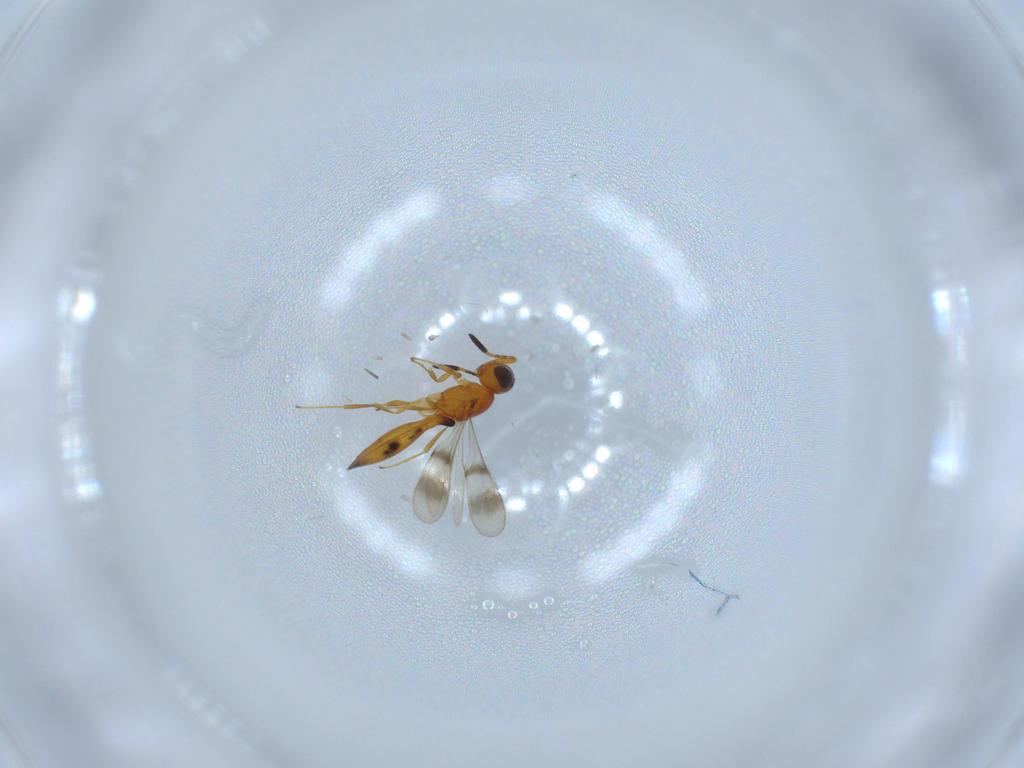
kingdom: Animalia
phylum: Arthropoda
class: Insecta
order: Hymenoptera
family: Scelionidae
